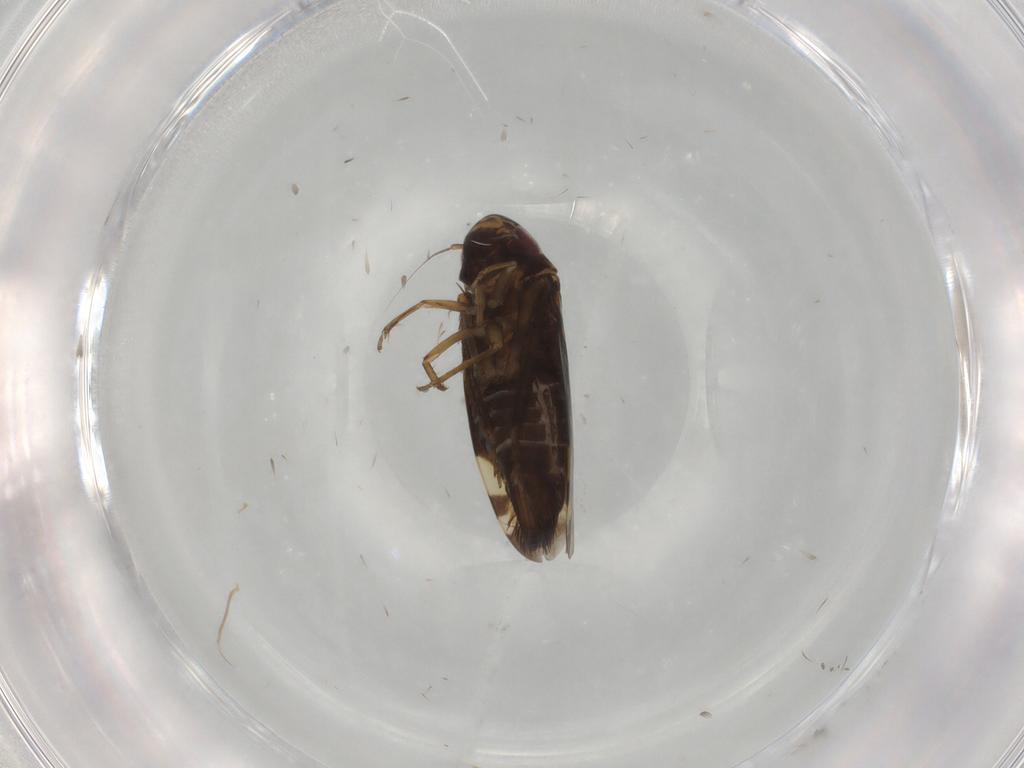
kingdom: Animalia
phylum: Arthropoda
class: Insecta
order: Hemiptera
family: Cicadellidae
